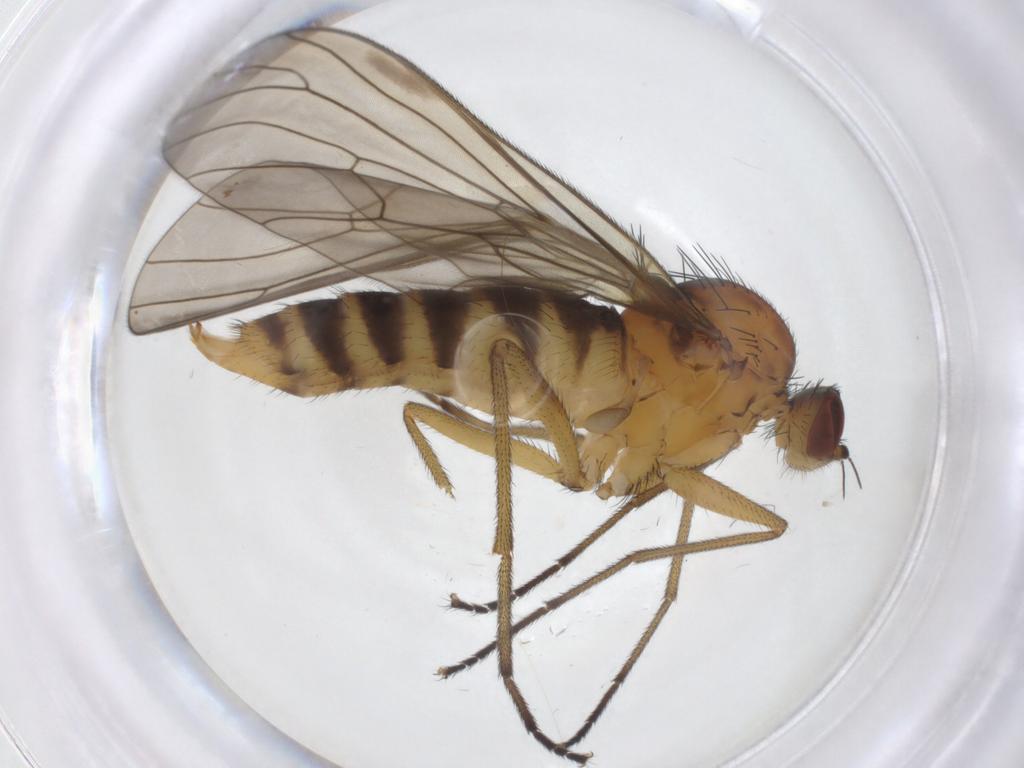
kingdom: Animalia
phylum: Arthropoda
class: Insecta
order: Diptera
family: Brachystomatidae
